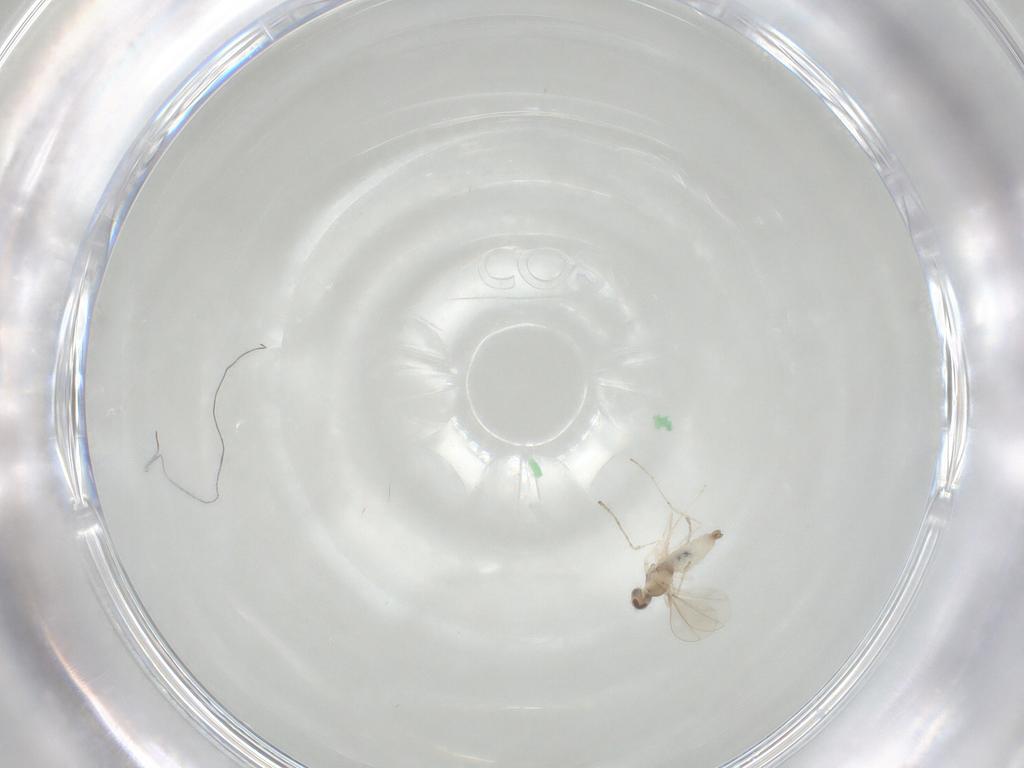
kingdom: Animalia
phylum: Arthropoda
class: Insecta
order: Diptera
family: Cecidomyiidae
